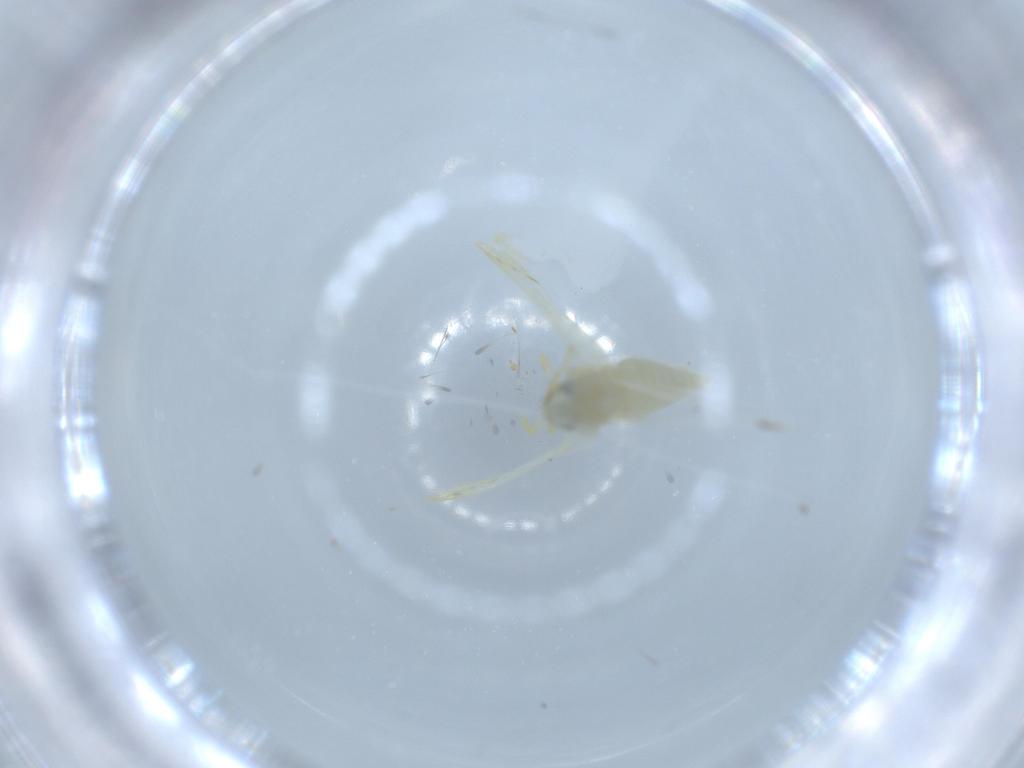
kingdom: Animalia
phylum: Arthropoda
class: Insecta
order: Hemiptera
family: Cicadellidae
